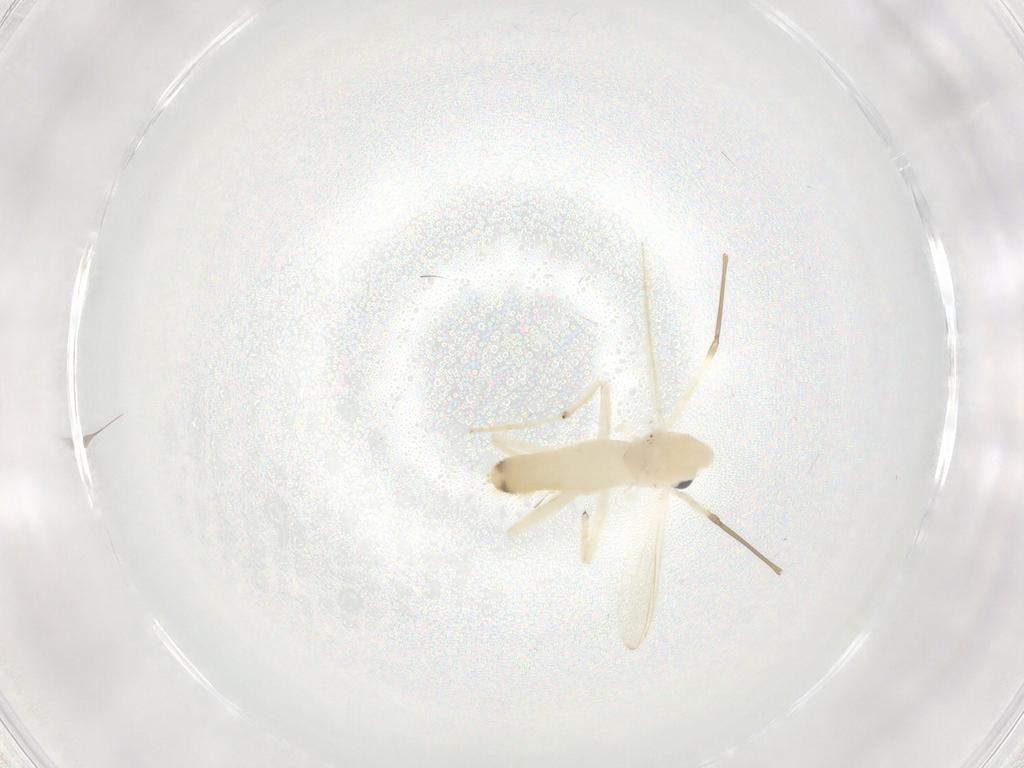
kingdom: Animalia
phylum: Arthropoda
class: Insecta
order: Diptera
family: Chironomidae
